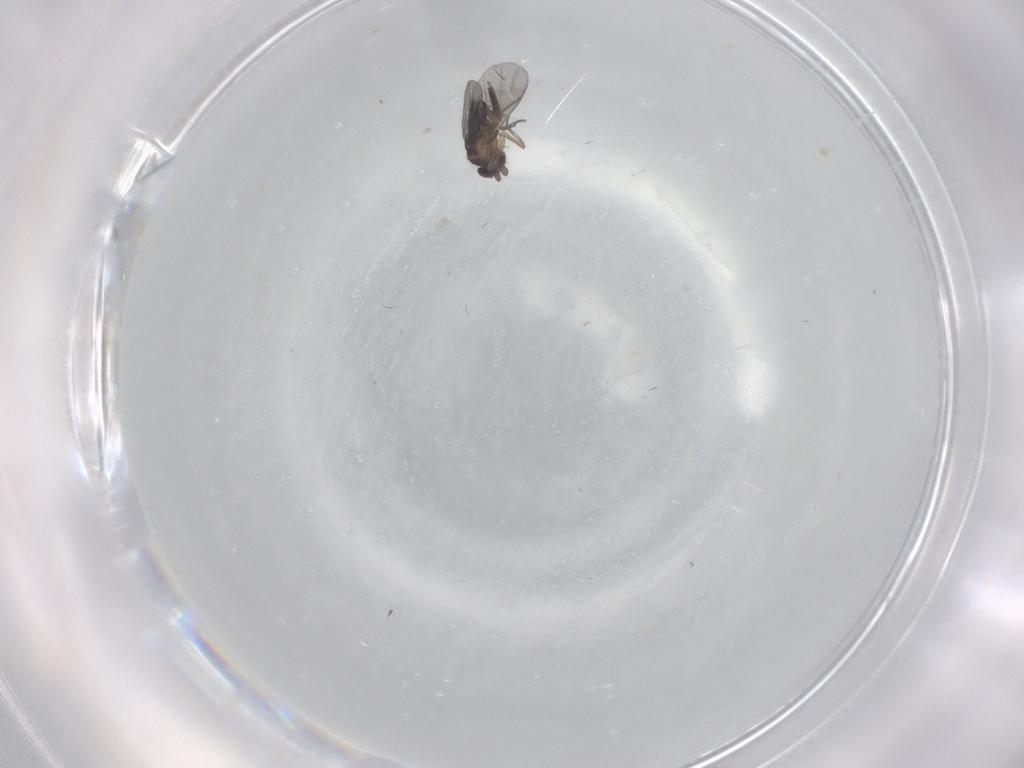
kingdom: Animalia
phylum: Arthropoda
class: Insecta
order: Diptera
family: Cecidomyiidae
